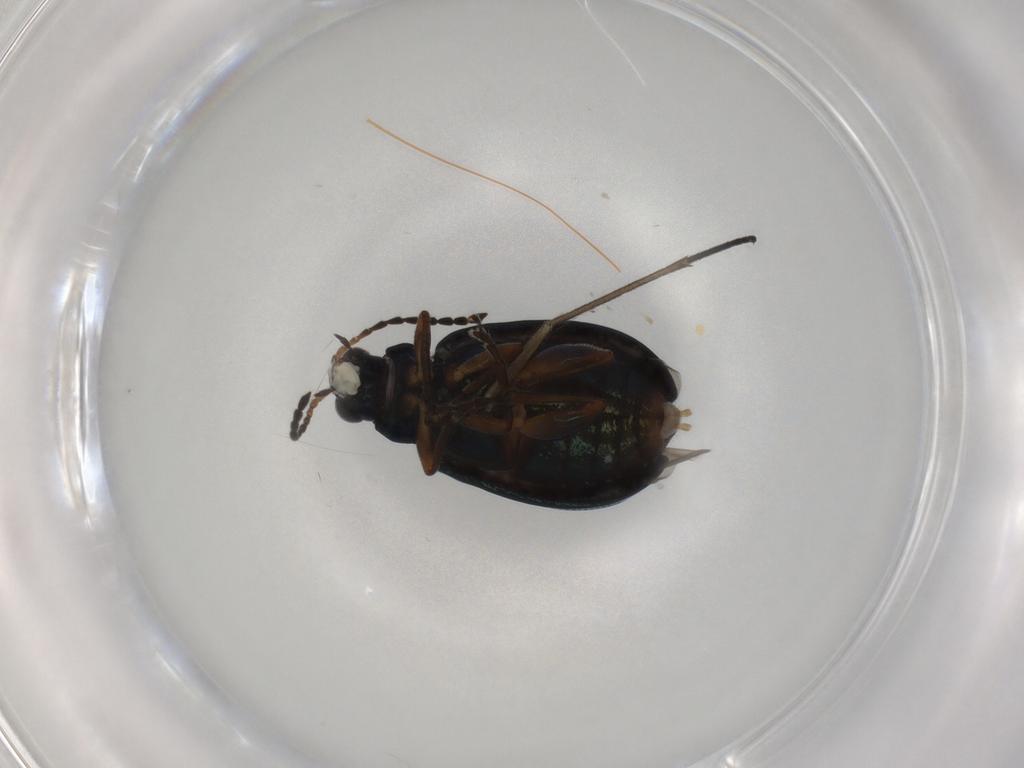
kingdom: Animalia
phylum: Arthropoda
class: Insecta
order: Coleoptera
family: Chrysomelidae
